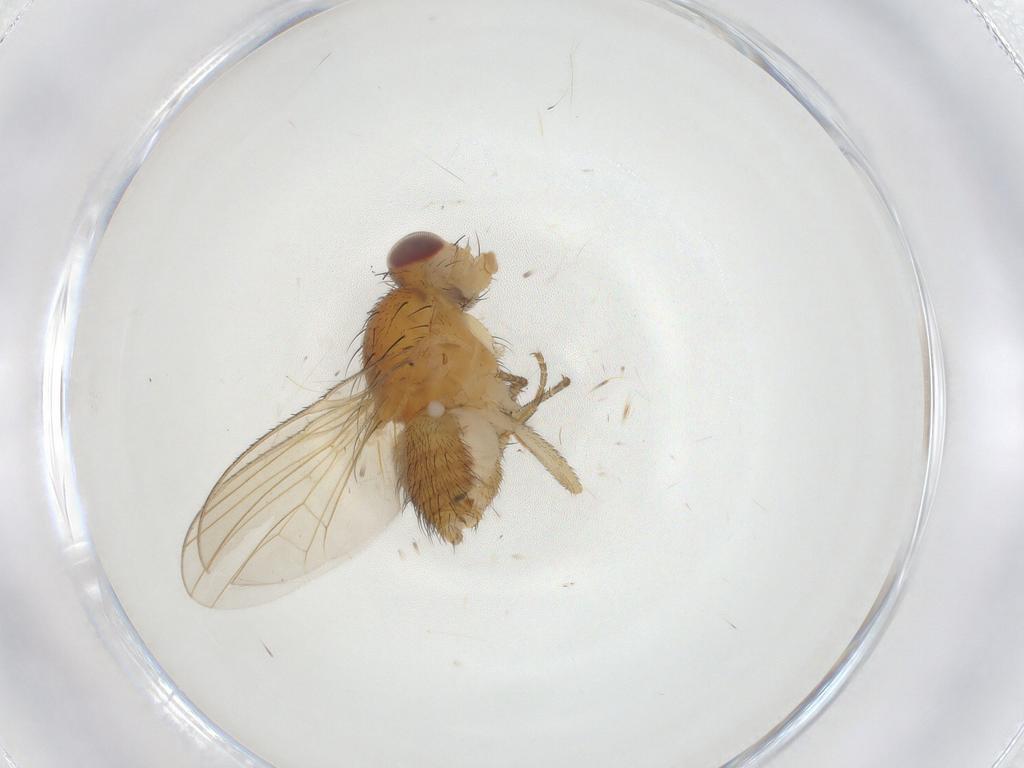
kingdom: Animalia
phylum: Arthropoda
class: Insecta
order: Diptera
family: Heleomyzidae
